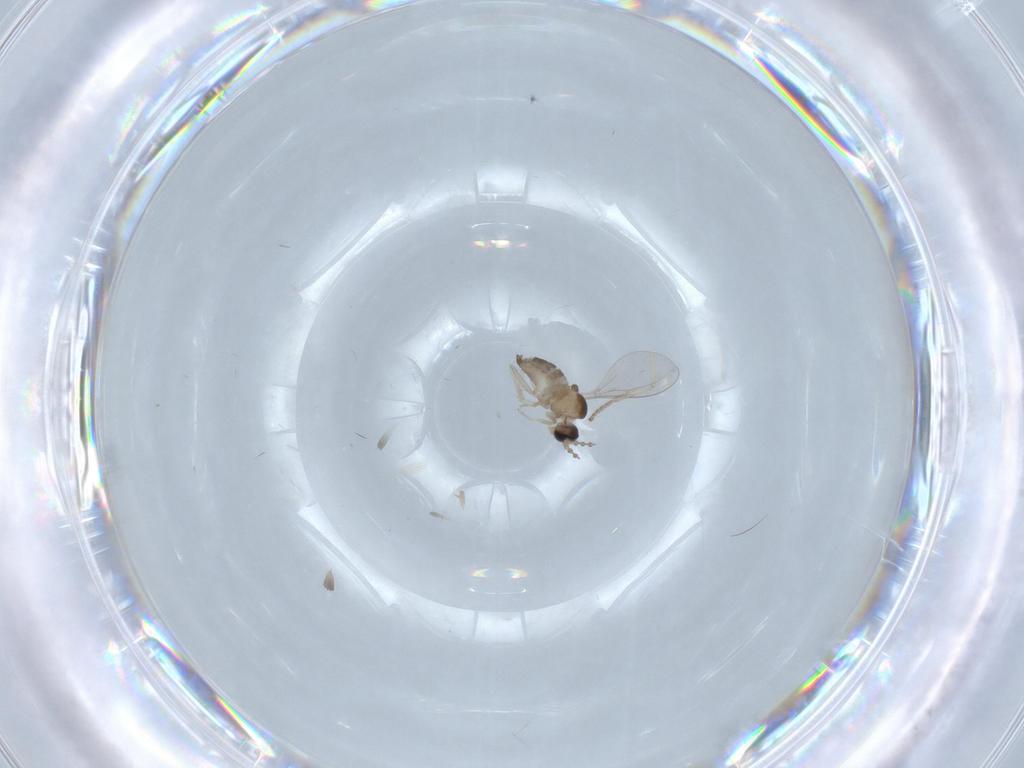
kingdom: Animalia
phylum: Arthropoda
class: Insecta
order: Diptera
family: Cecidomyiidae
